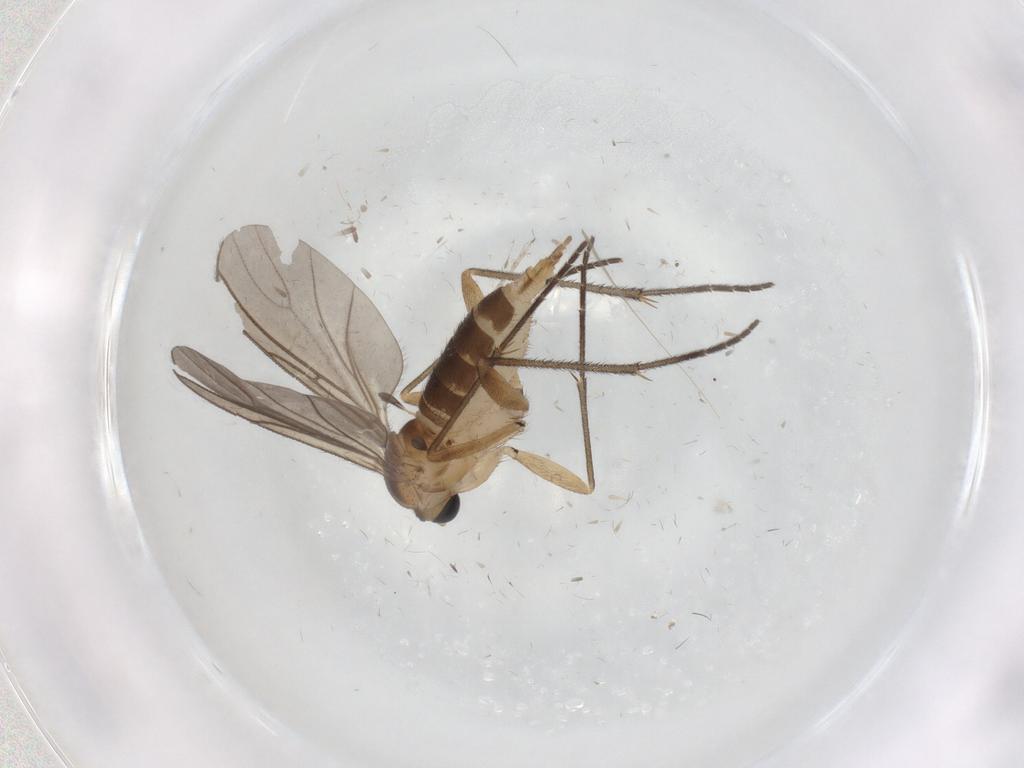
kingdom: Animalia
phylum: Arthropoda
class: Insecta
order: Diptera
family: Sciaridae
